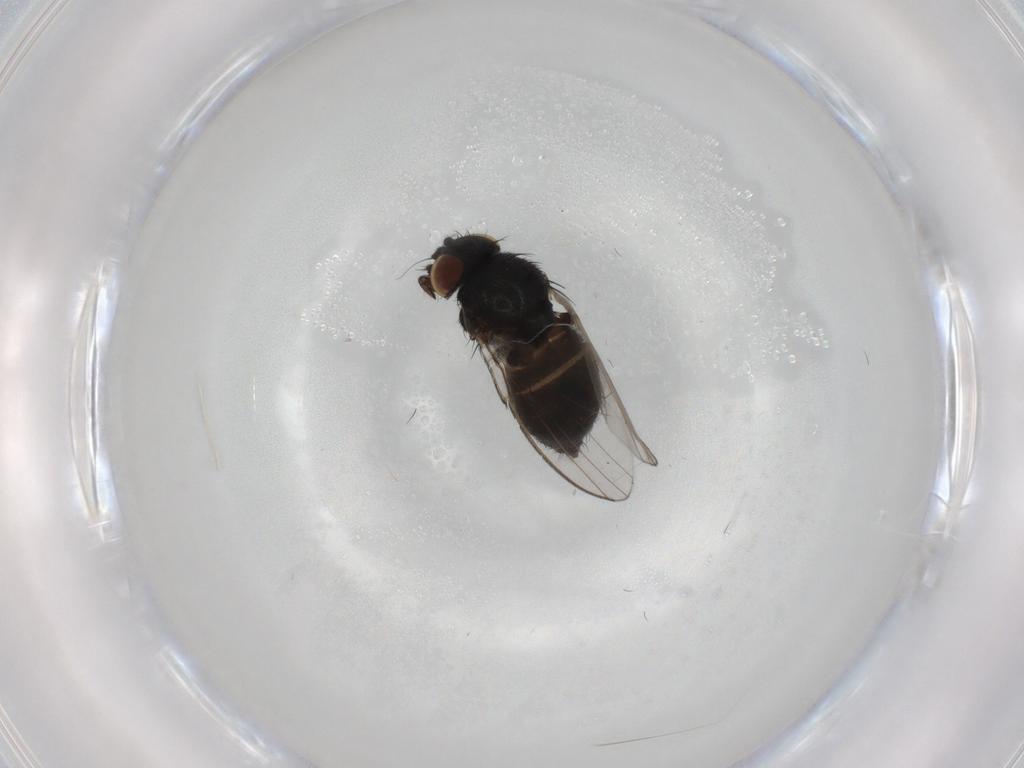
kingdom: Animalia
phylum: Arthropoda
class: Insecta
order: Diptera
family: Milichiidae
